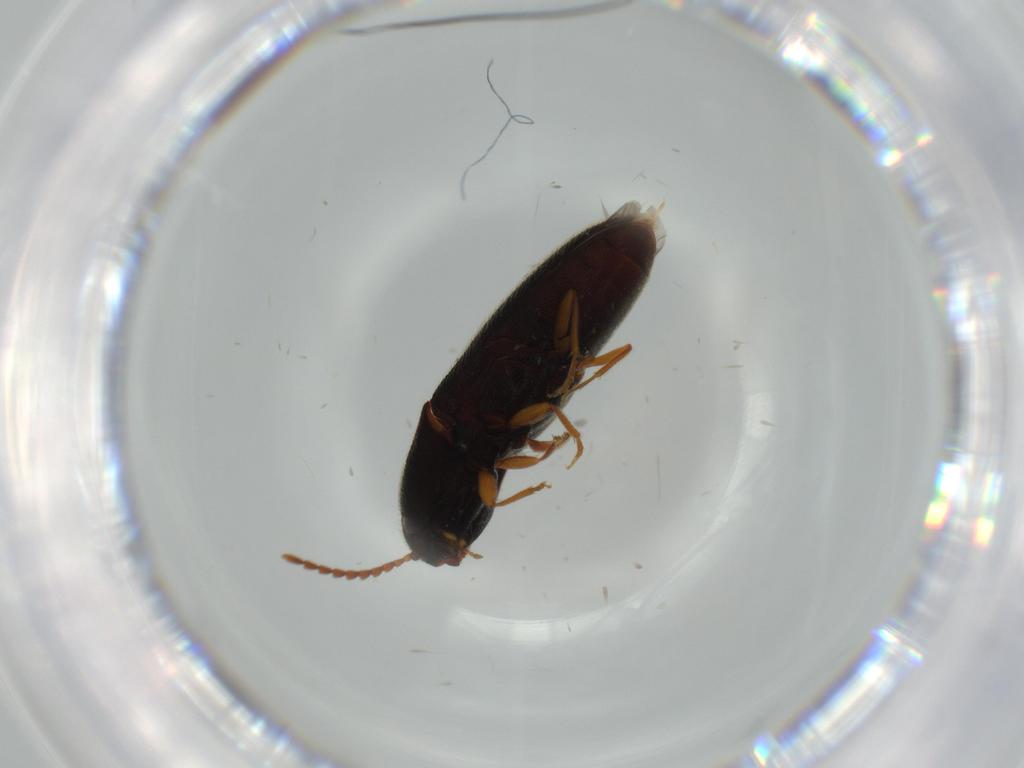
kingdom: Animalia
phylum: Arthropoda
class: Insecta
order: Coleoptera
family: Elateridae
